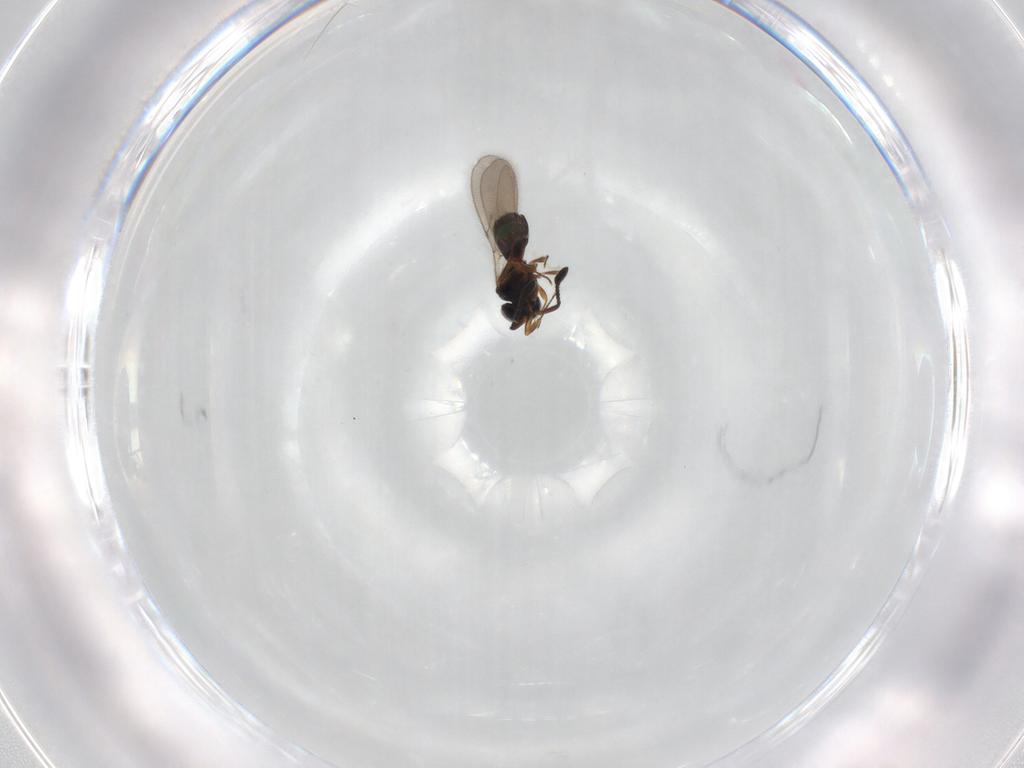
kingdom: Animalia
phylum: Arthropoda
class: Insecta
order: Hymenoptera
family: Scelionidae
